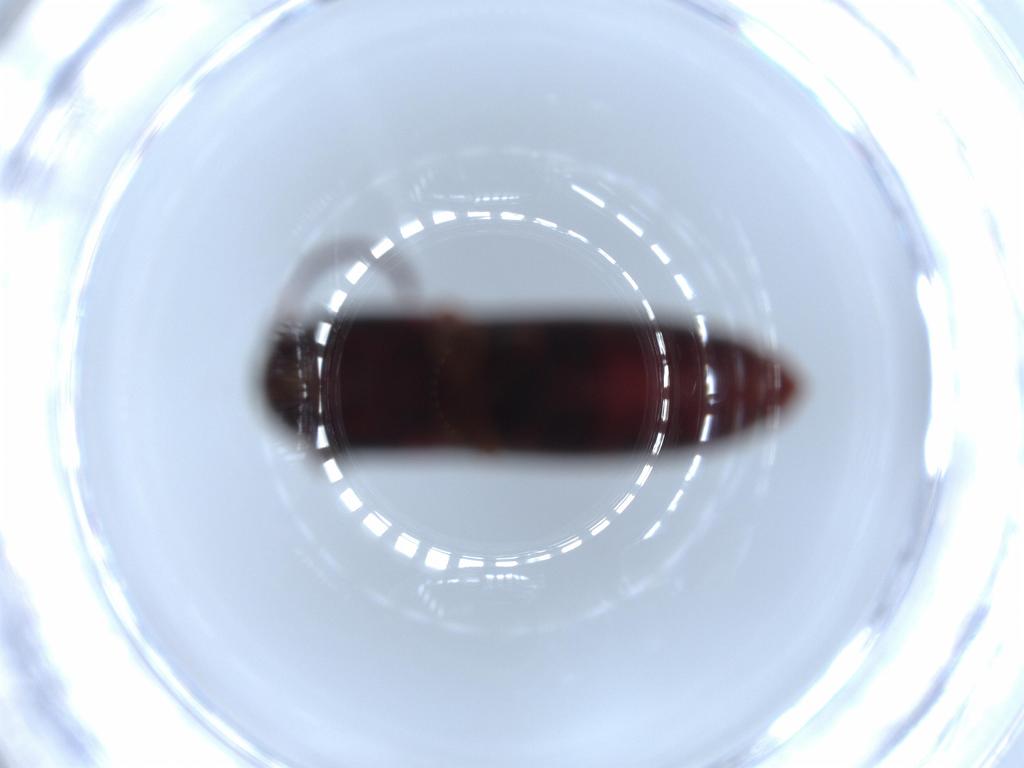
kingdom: Animalia
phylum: Arthropoda
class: Insecta
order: Coleoptera
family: Eucnemidae
